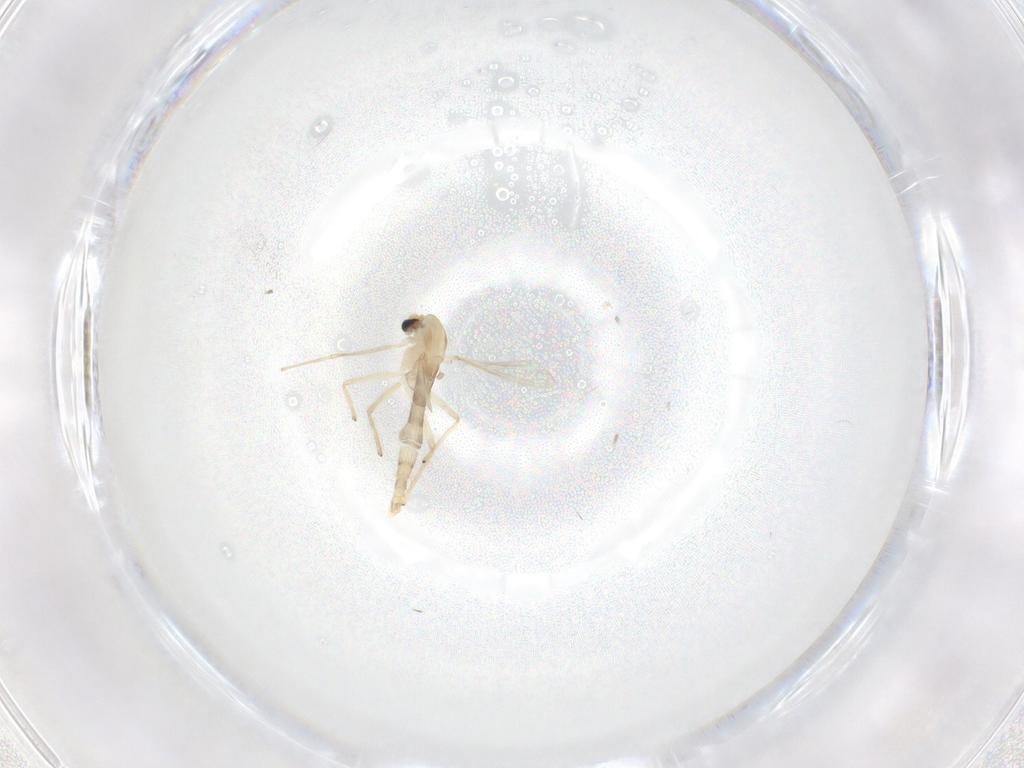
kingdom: Animalia
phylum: Arthropoda
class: Insecta
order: Diptera
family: Chironomidae
